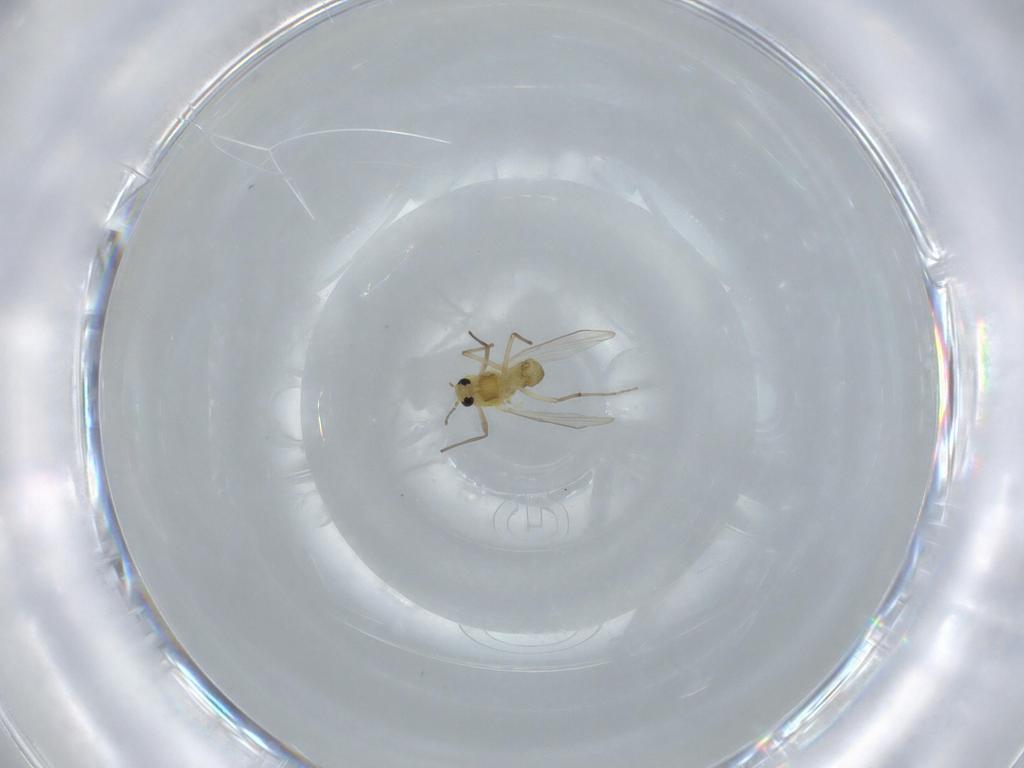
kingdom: Animalia
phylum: Arthropoda
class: Insecta
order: Diptera
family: Chironomidae
